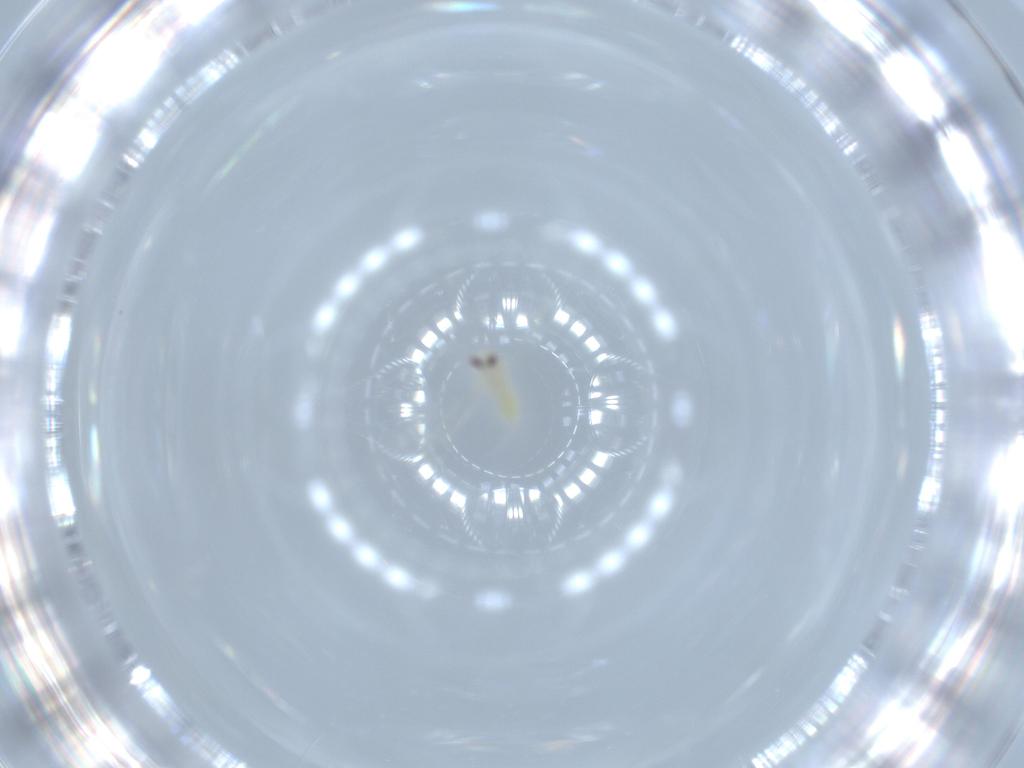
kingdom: Animalia
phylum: Arthropoda
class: Insecta
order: Hemiptera
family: Aleyrodidae
